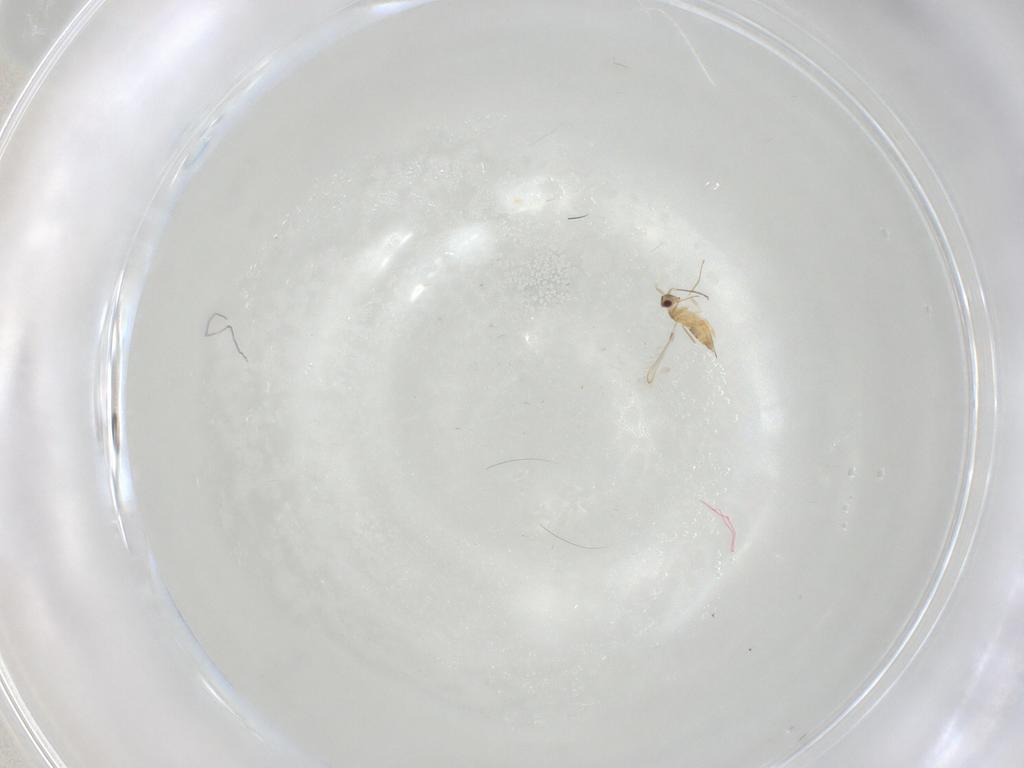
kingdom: Animalia
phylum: Arthropoda
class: Insecta
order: Hymenoptera
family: Mymaridae
